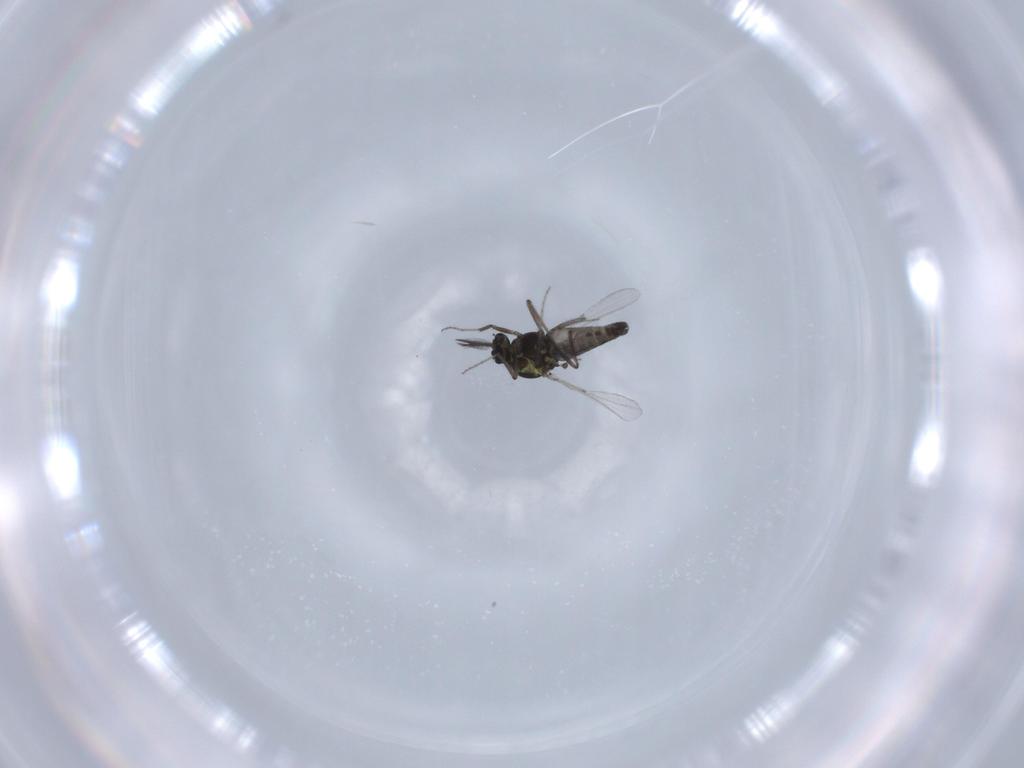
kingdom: Animalia
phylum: Arthropoda
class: Insecta
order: Diptera
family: Ceratopogonidae
